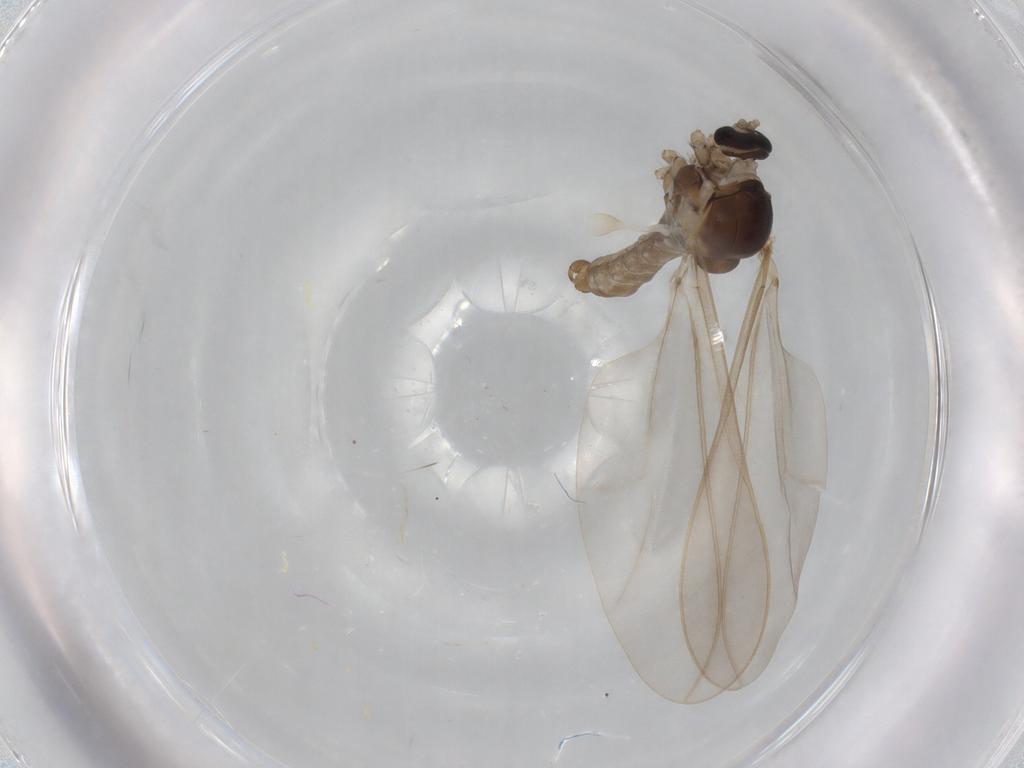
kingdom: Animalia
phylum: Arthropoda
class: Insecta
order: Diptera
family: Cecidomyiidae
